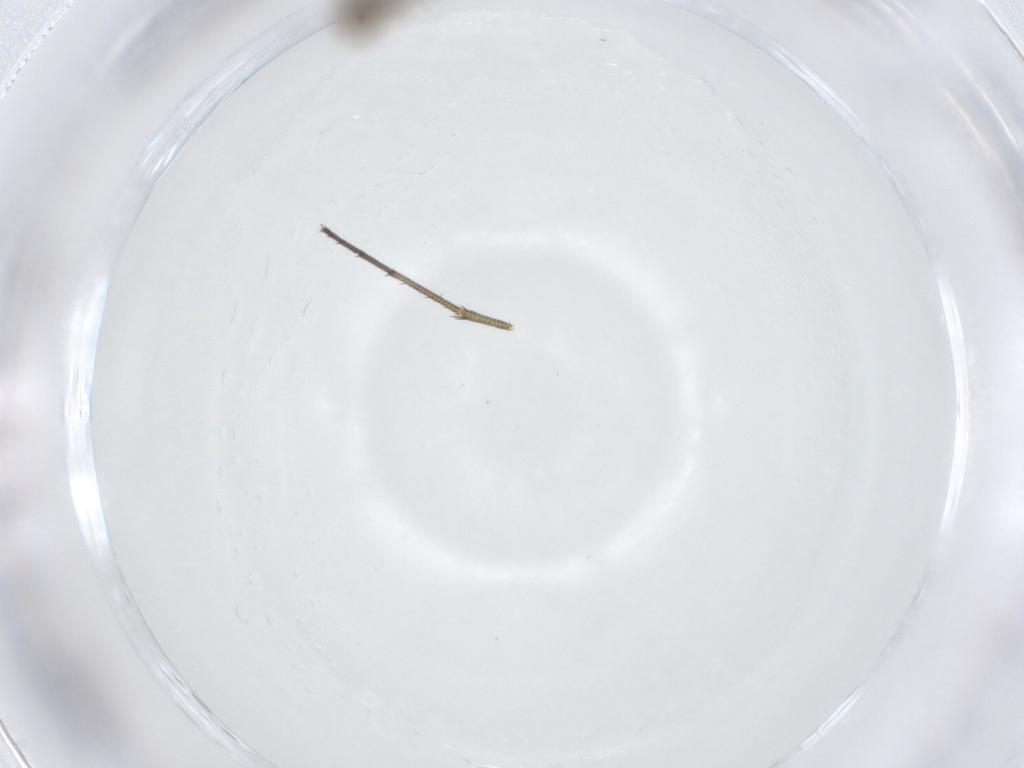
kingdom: Animalia
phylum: Arthropoda
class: Insecta
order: Diptera
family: Dolichopodidae
